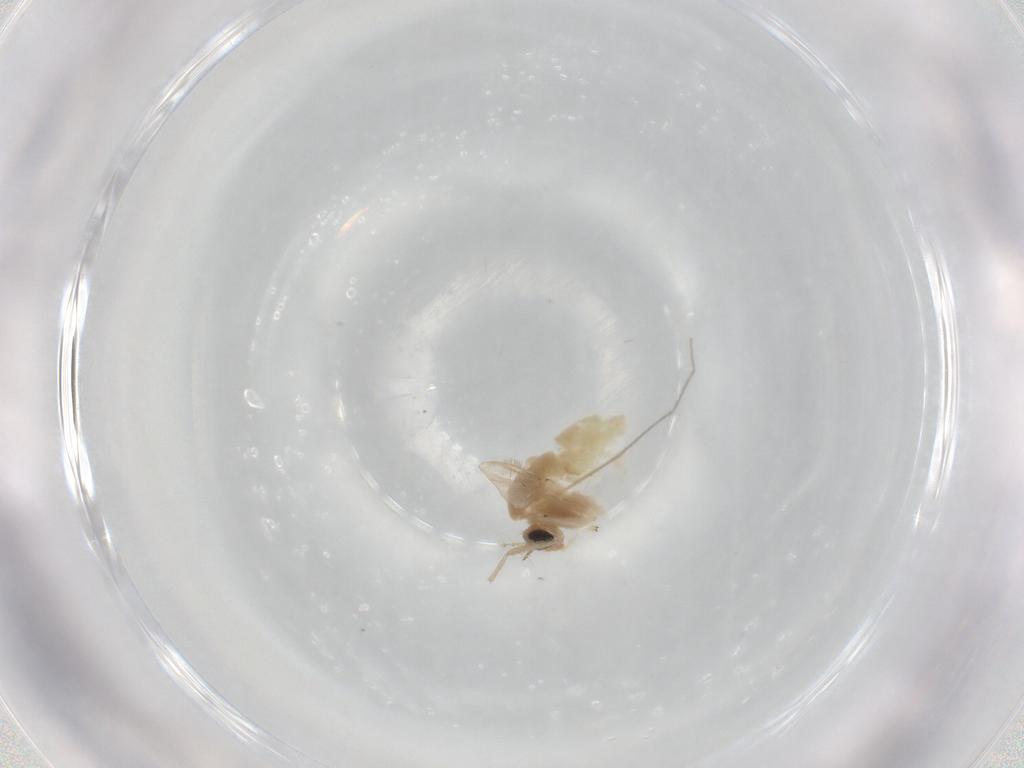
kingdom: Animalia
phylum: Arthropoda
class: Insecta
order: Diptera
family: Chironomidae
